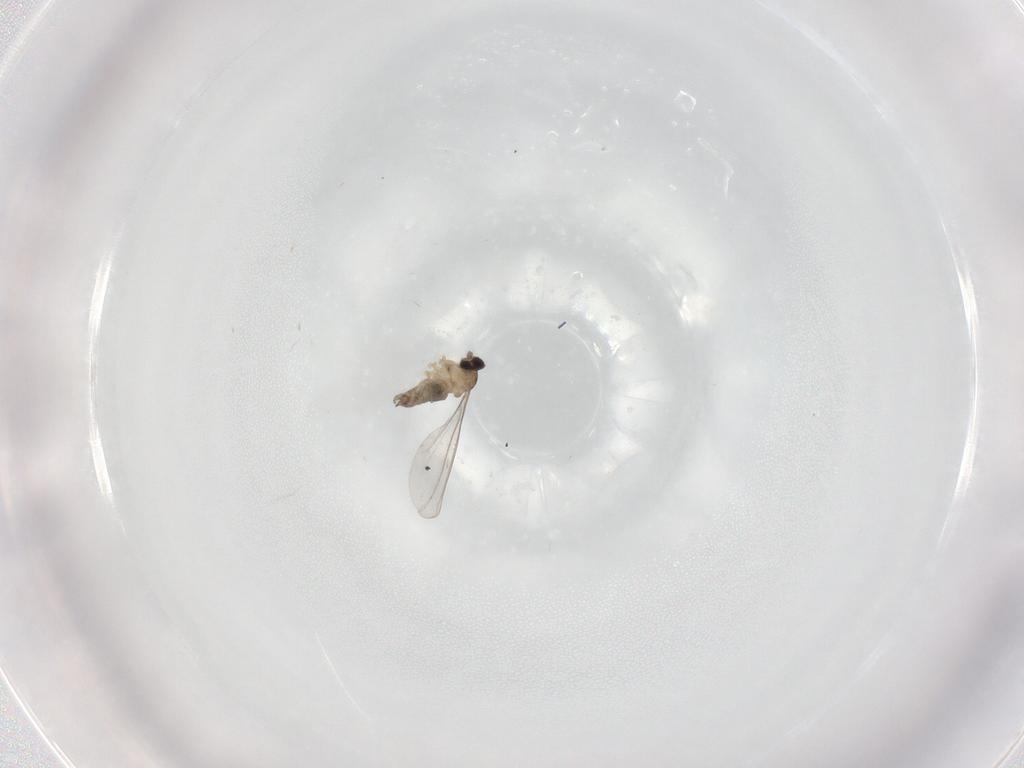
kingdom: Animalia
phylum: Arthropoda
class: Insecta
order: Diptera
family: Cecidomyiidae
